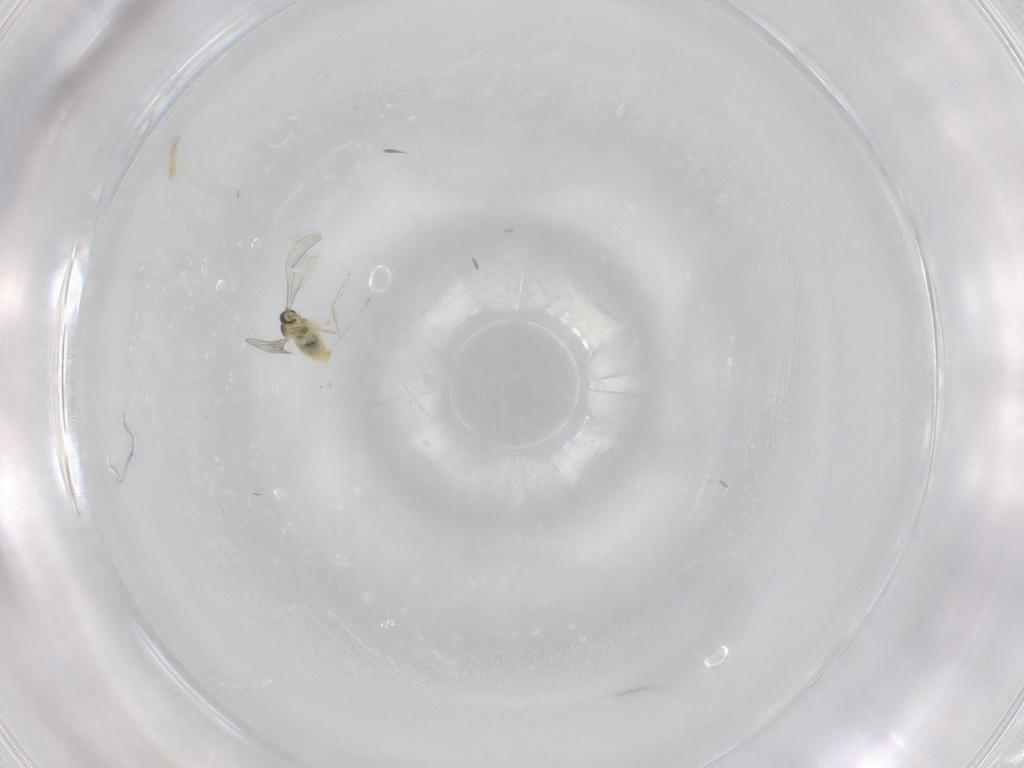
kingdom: Animalia
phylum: Arthropoda
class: Insecta
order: Diptera
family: Cecidomyiidae
